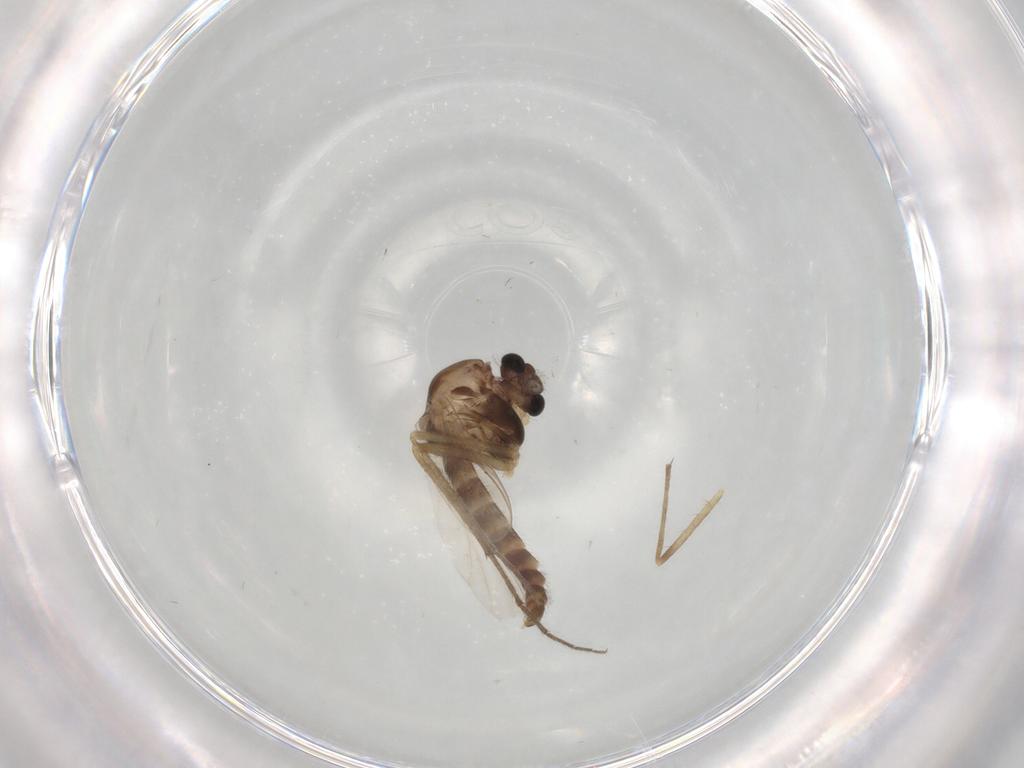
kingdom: Animalia
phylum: Arthropoda
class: Insecta
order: Diptera
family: Chironomidae
